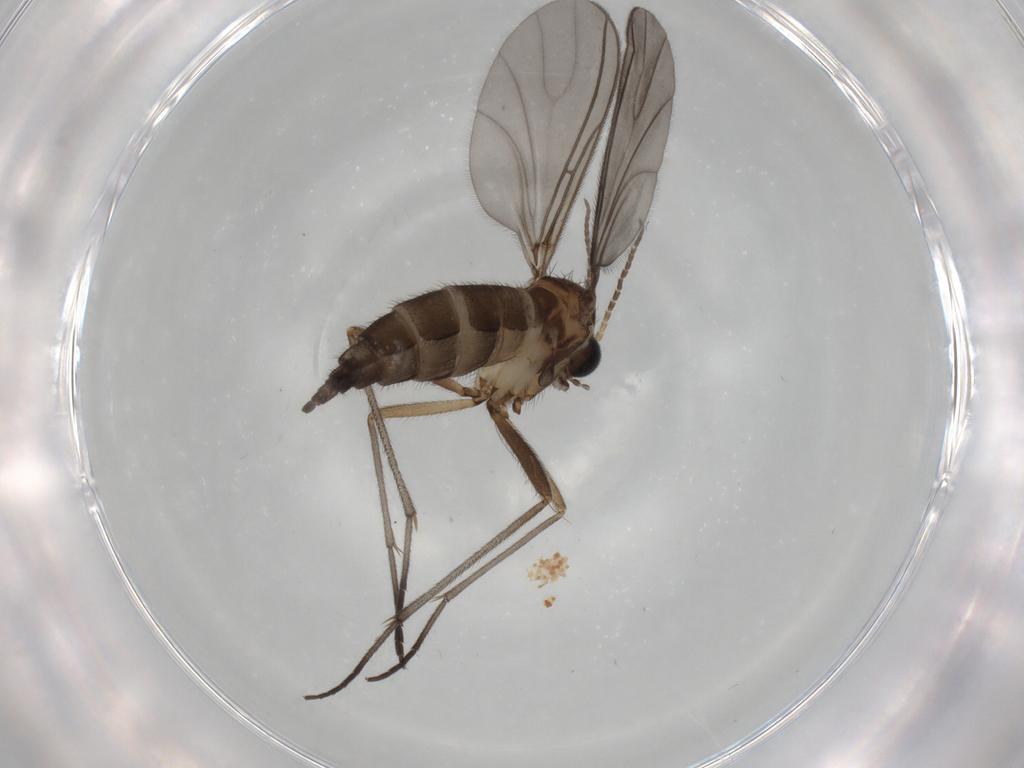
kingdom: Animalia
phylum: Arthropoda
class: Insecta
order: Diptera
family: Sciaridae
